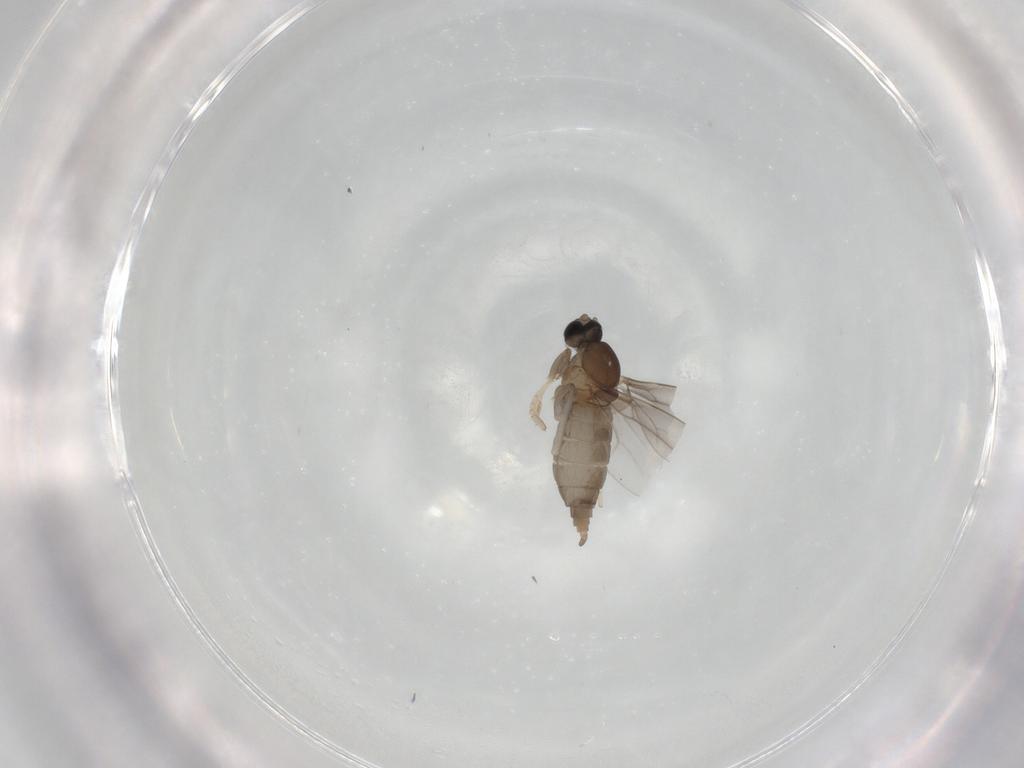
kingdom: Animalia
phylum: Arthropoda
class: Insecta
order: Diptera
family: Cecidomyiidae
